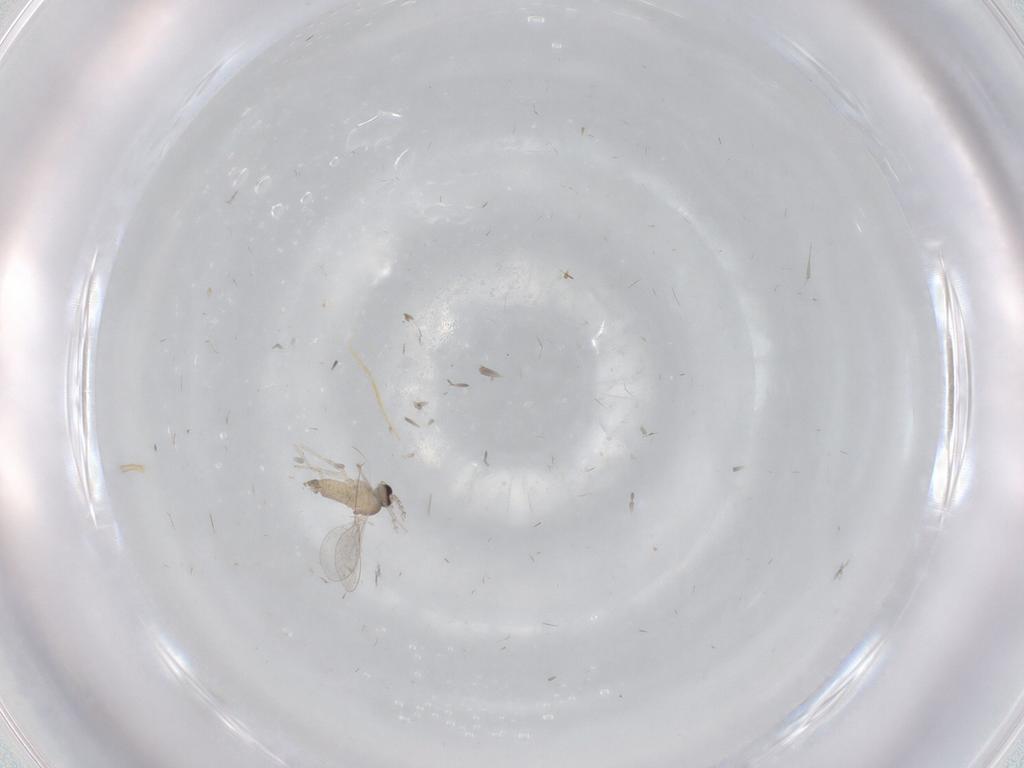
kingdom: Animalia
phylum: Arthropoda
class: Insecta
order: Diptera
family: Cecidomyiidae
